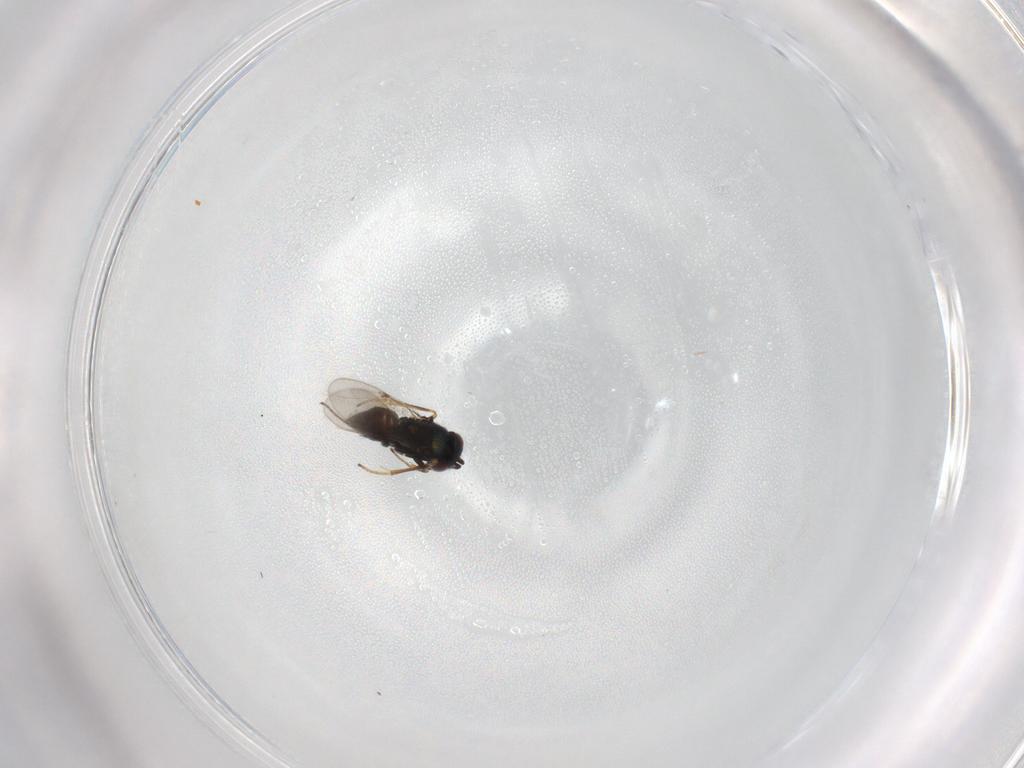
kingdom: Animalia
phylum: Arthropoda
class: Insecta
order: Hymenoptera
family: Encyrtidae
